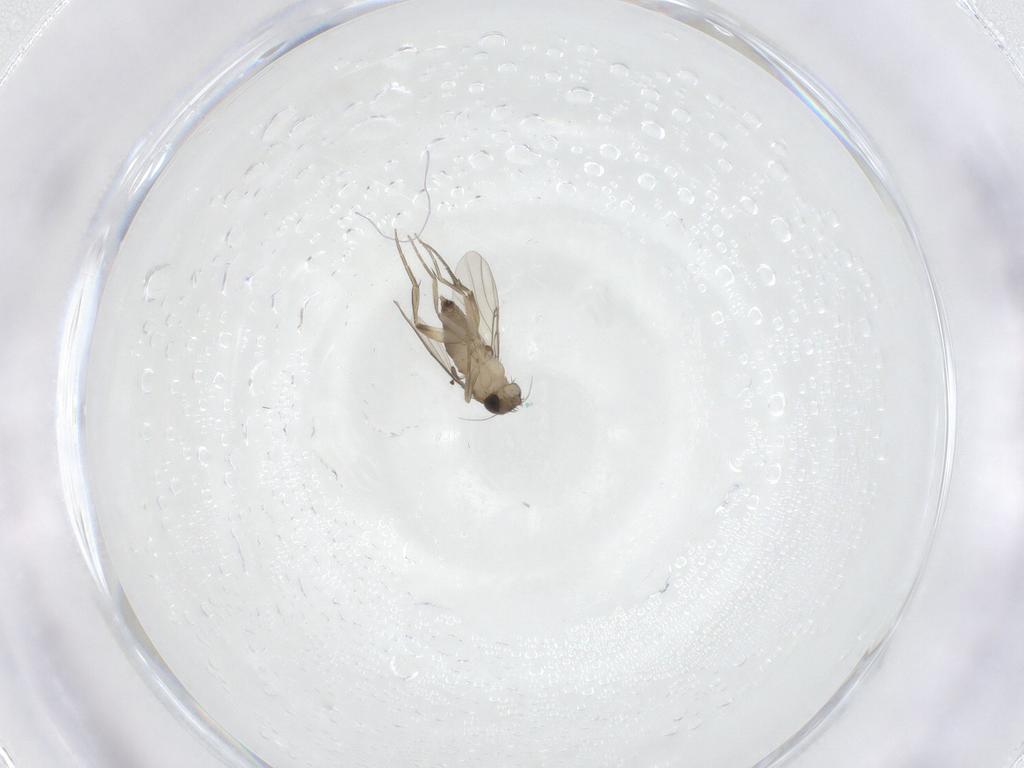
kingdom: Animalia
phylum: Arthropoda
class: Insecta
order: Diptera
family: Phoridae
